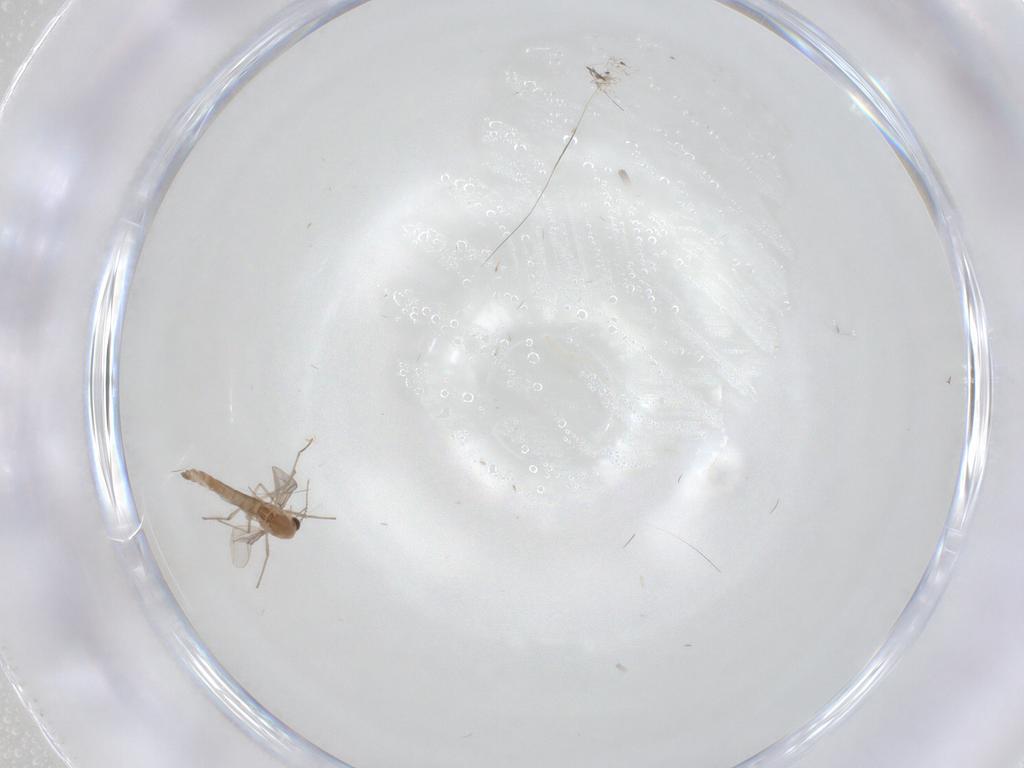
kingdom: Animalia
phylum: Arthropoda
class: Insecta
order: Diptera
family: Chironomidae
